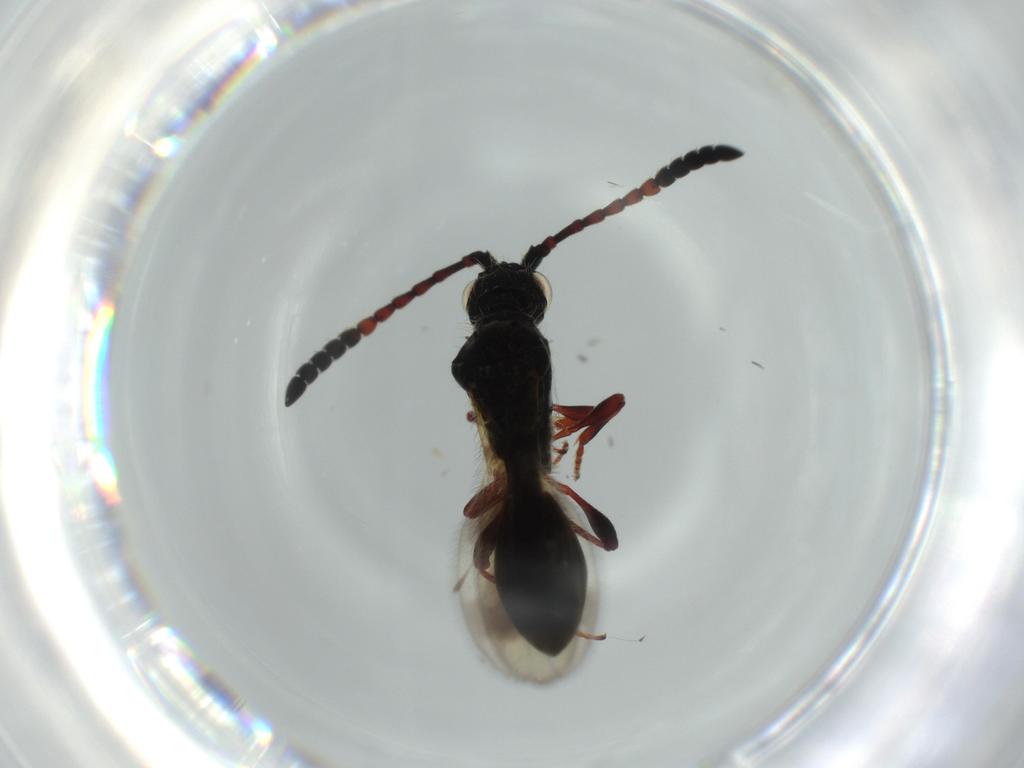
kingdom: Animalia
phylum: Arthropoda
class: Insecta
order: Hymenoptera
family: Diapriidae
